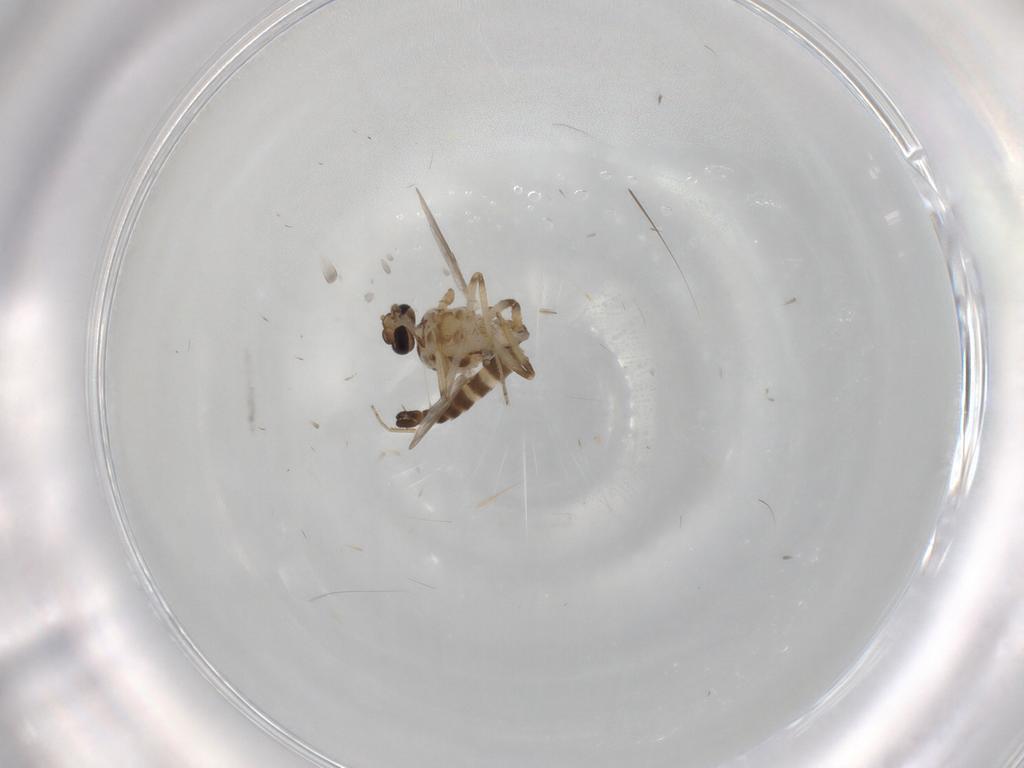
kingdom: Animalia
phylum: Arthropoda
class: Insecta
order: Diptera
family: Ceratopogonidae
